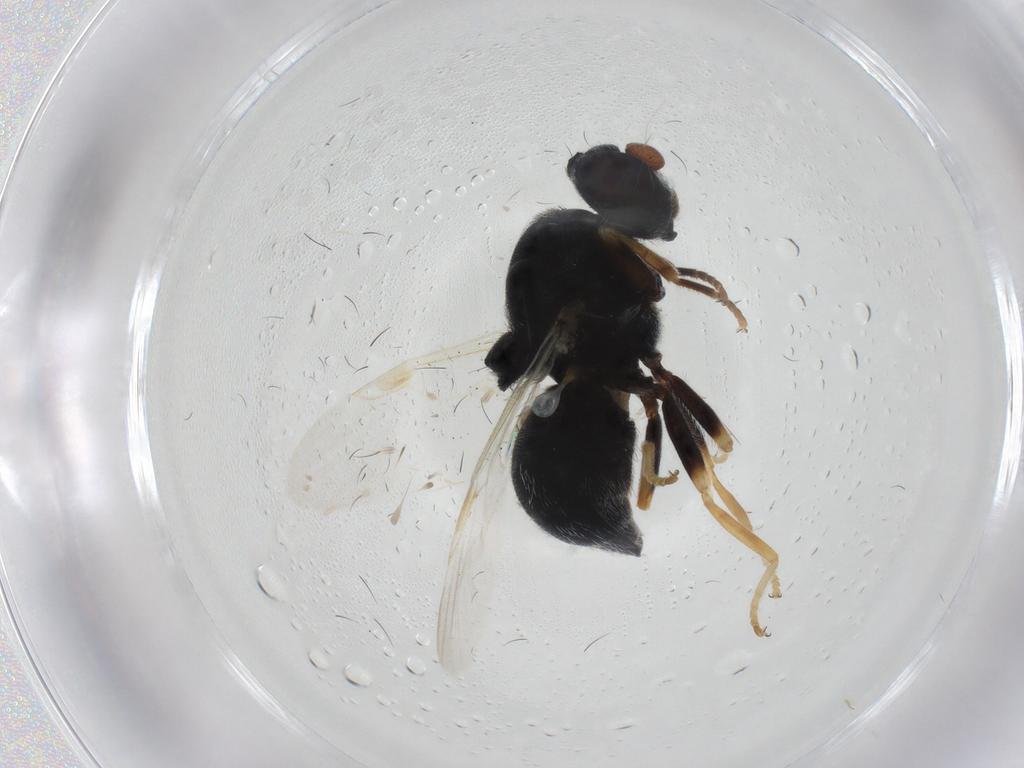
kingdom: Animalia
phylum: Arthropoda
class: Insecta
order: Diptera
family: Stratiomyidae
